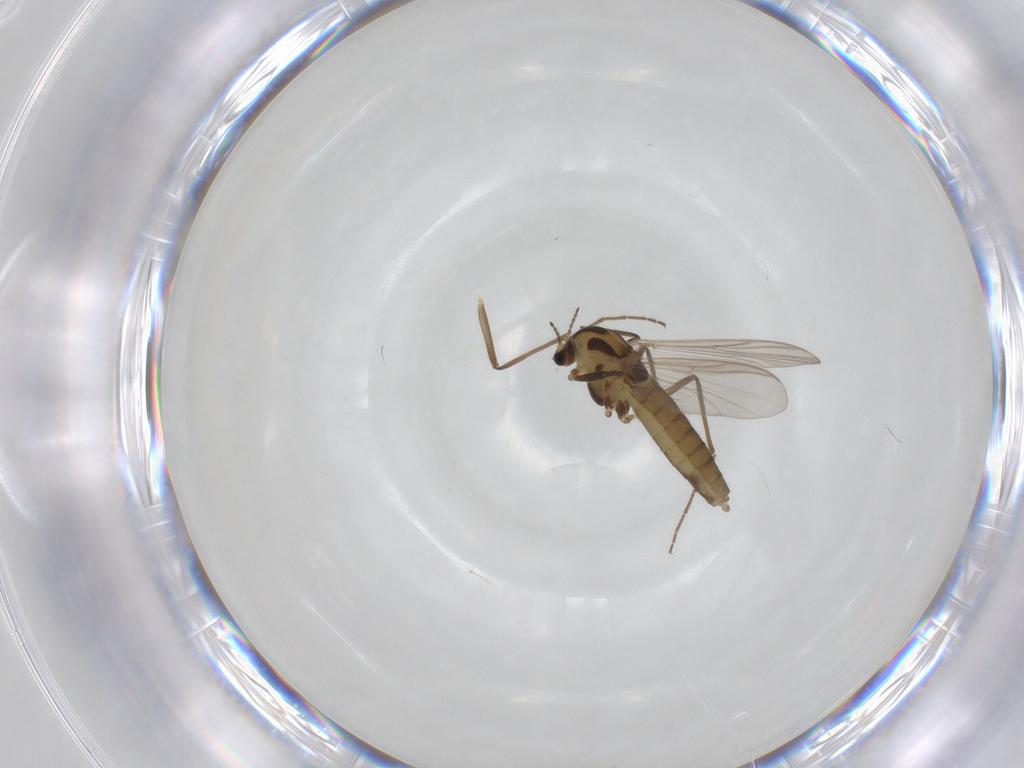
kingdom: Animalia
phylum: Arthropoda
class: Insecta
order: Diptera
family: Chironomidae
